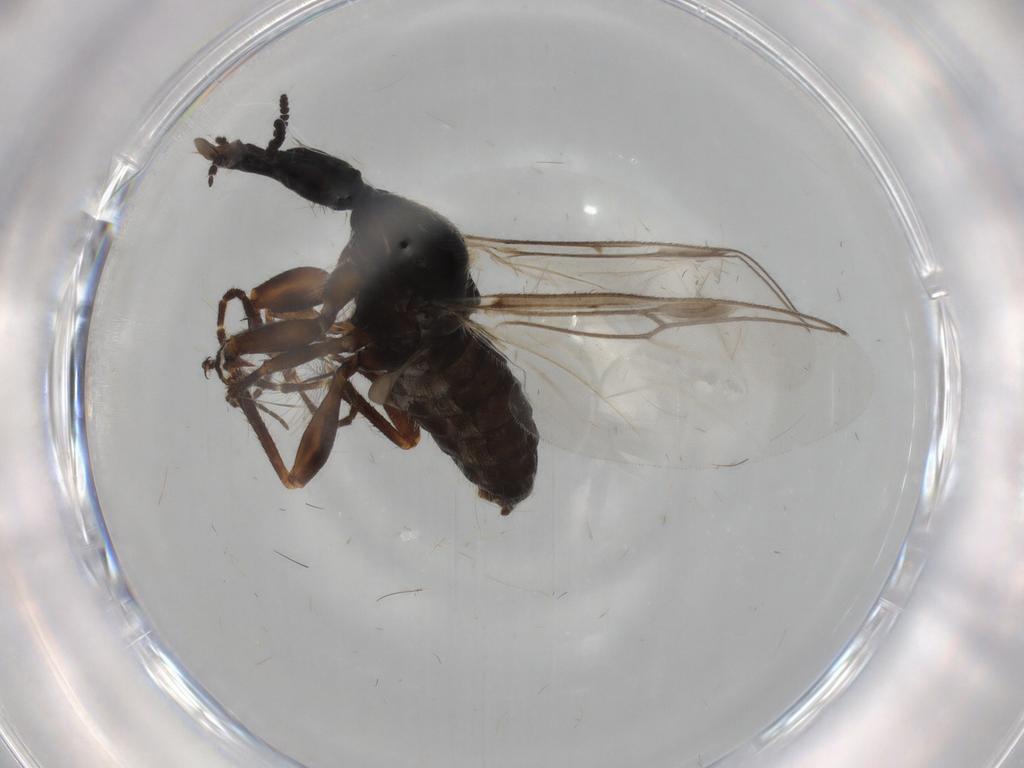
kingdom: Animalia
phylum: Arthropoda
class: Insecta
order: Diptera
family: Bibionidae
